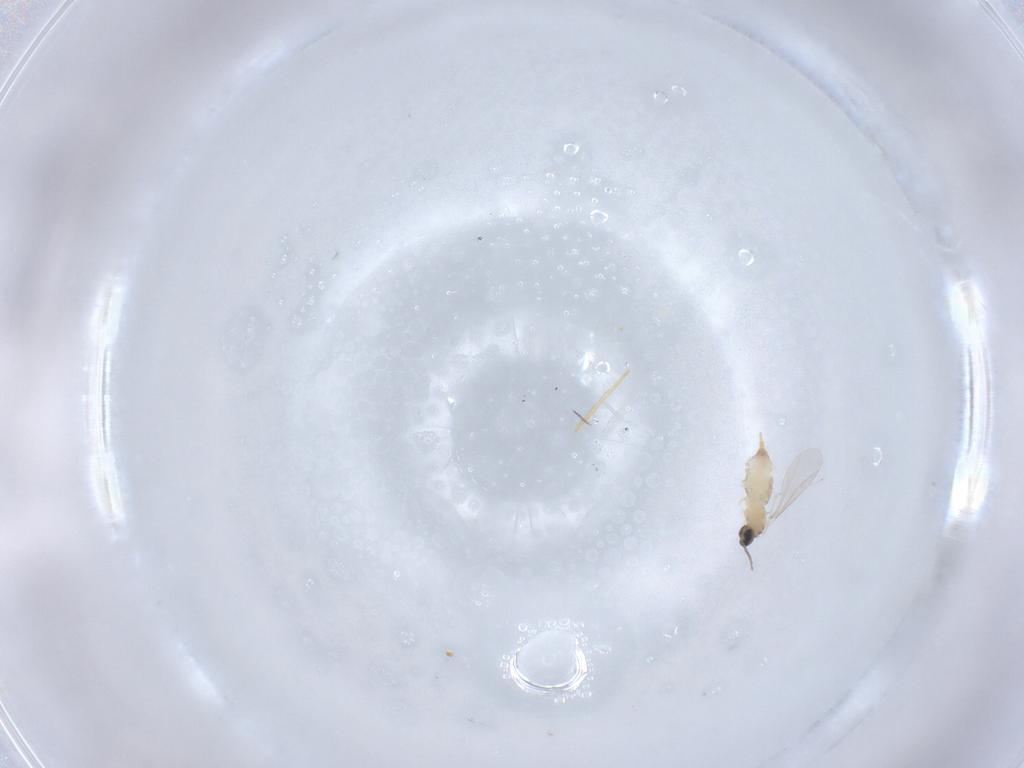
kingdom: Animalia
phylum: Arthropoda
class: Insecta
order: Diptera
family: Cecidomyiidae
